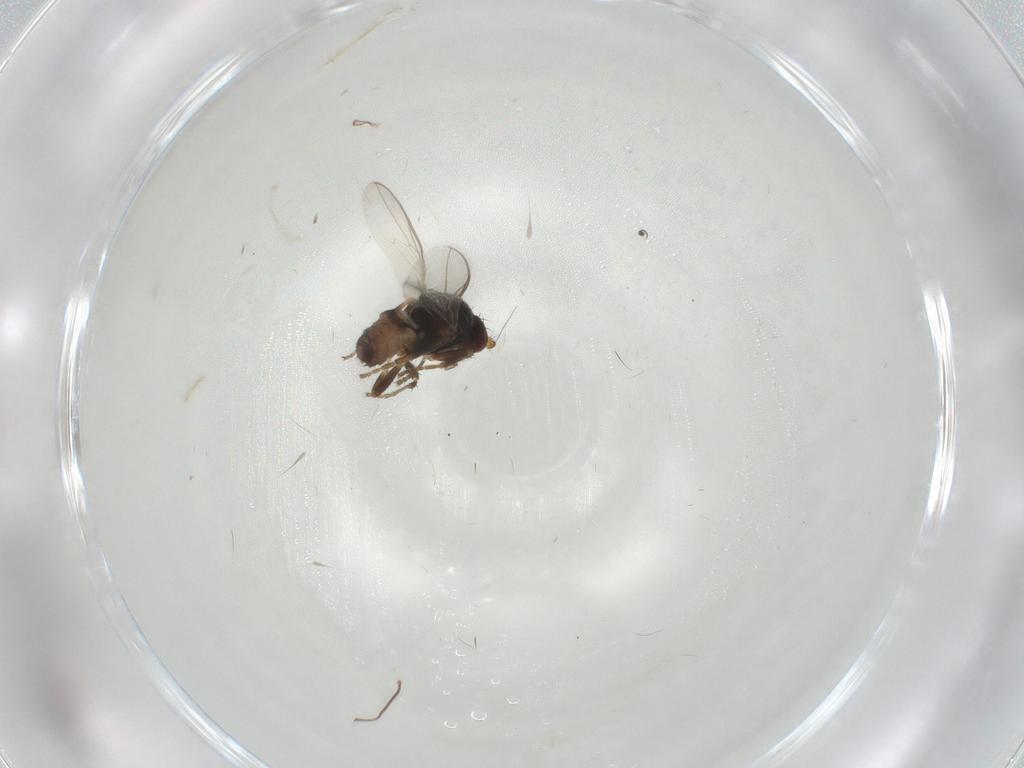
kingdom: Animalia
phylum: Arthropoda
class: Insecta
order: Diptera
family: Sphaeroceridae
